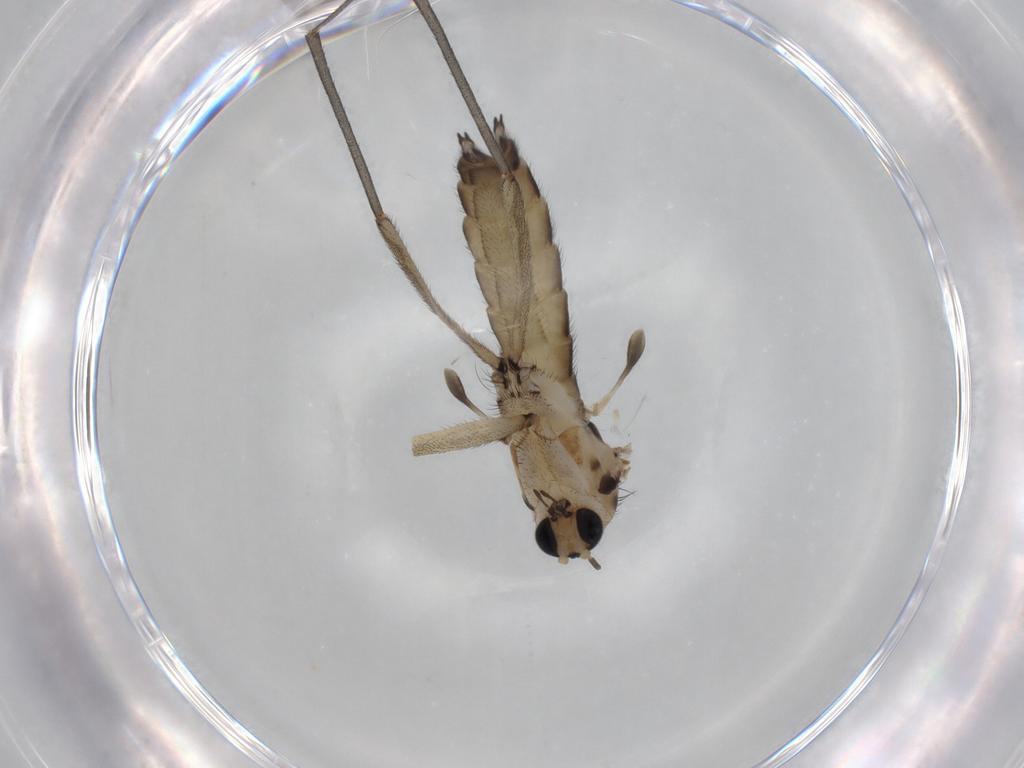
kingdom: Animalia
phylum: Arthropoda
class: Insecta
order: Diptera
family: Sciaridae
